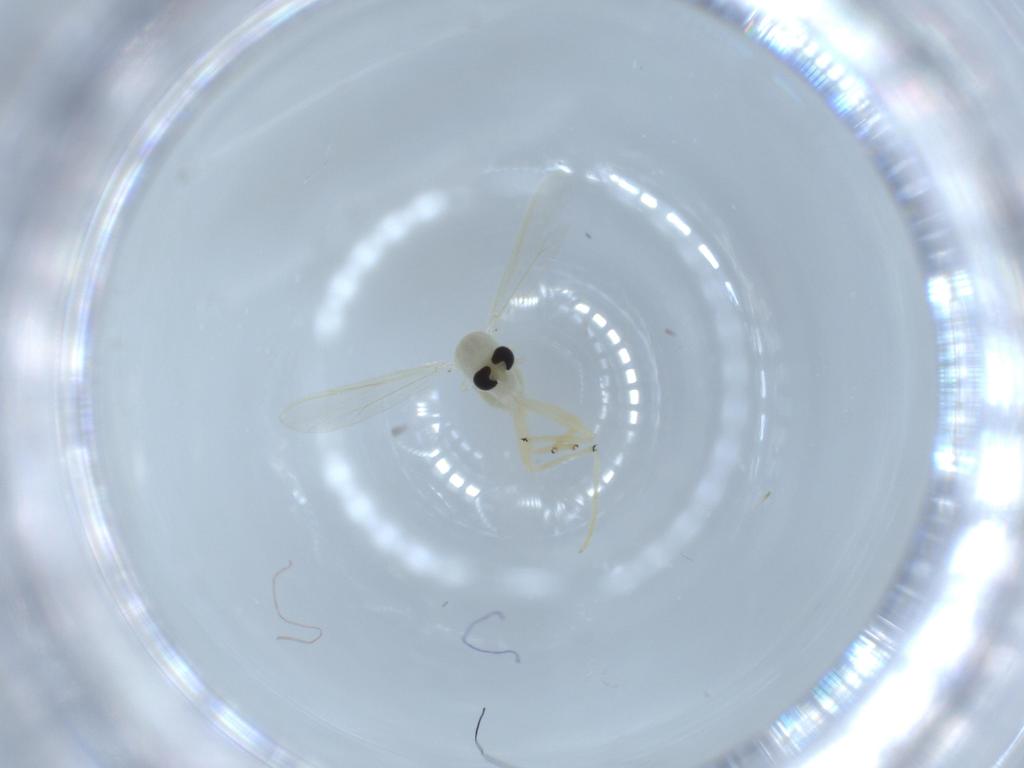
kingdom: Animalia
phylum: Arthropoda
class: Insecta
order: Diptera
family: Chironomidae
